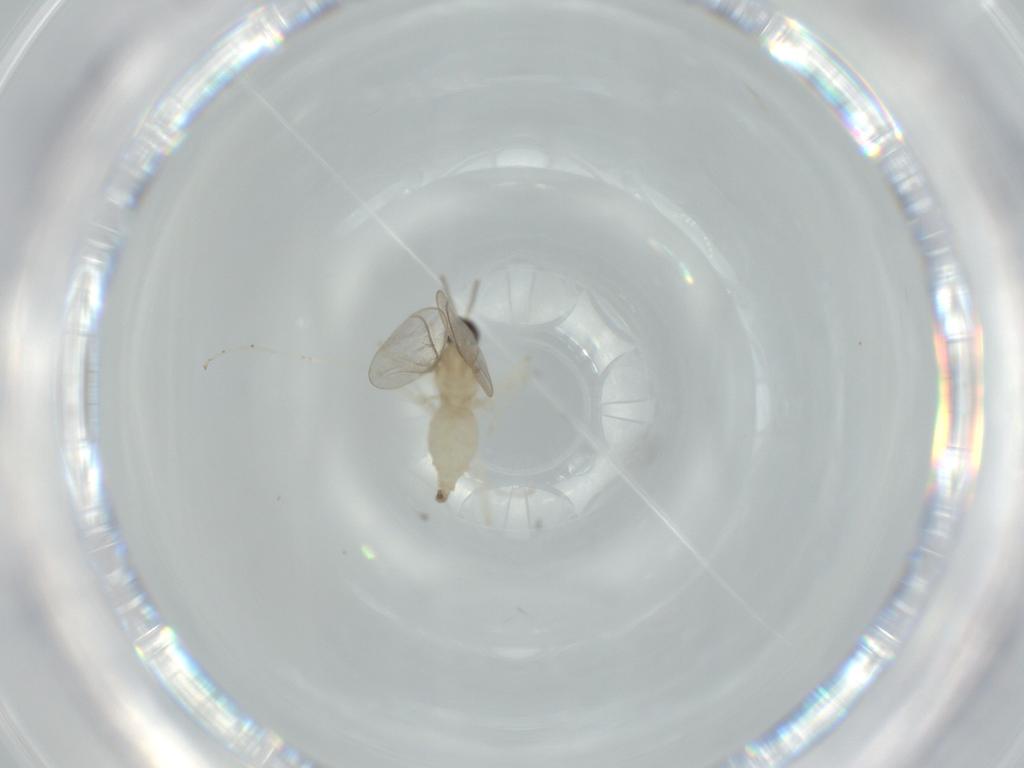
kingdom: Animalia
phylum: Arthropoda
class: Insecta
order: Diptera
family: Cecidomyiidae
